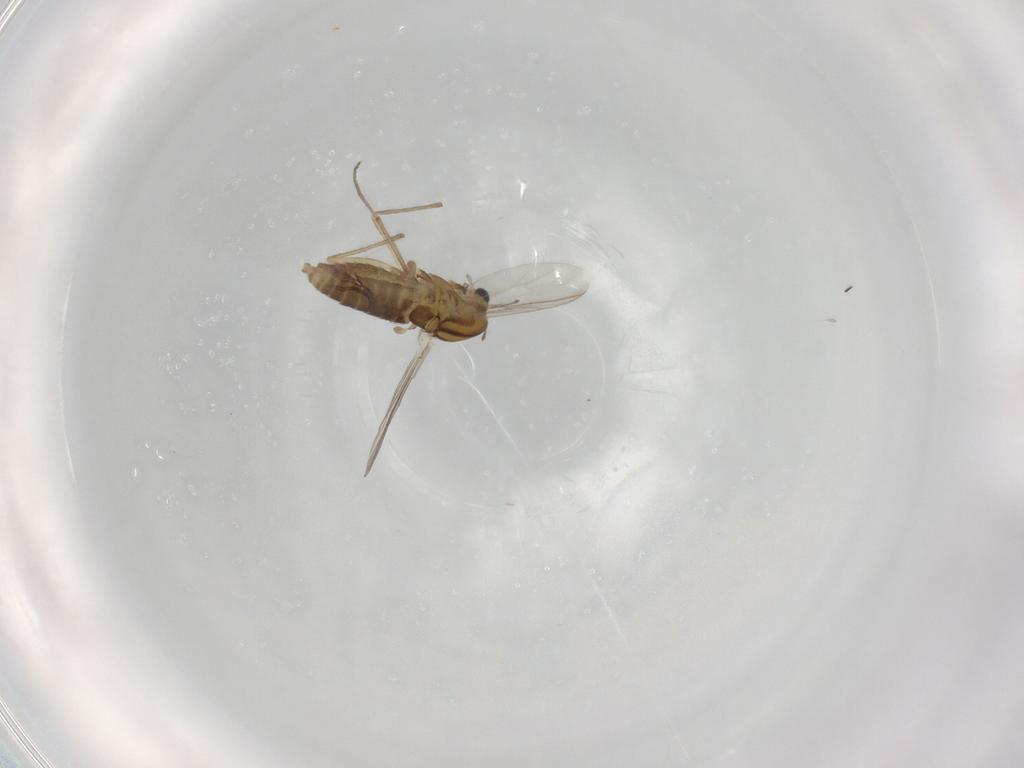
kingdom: Animalia
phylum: Arthropoda
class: Insecta
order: Diptera
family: Chironomidae
